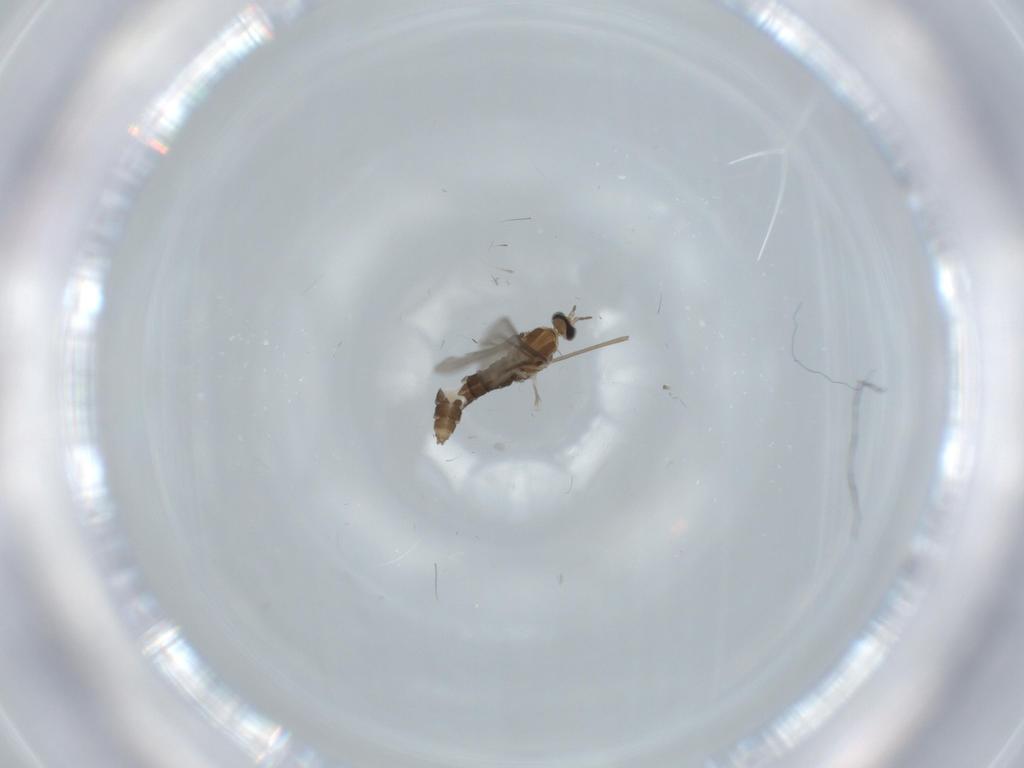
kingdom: Animalia
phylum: Arthropoda
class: Insecta
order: Diptera
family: Cecidomyiidae
